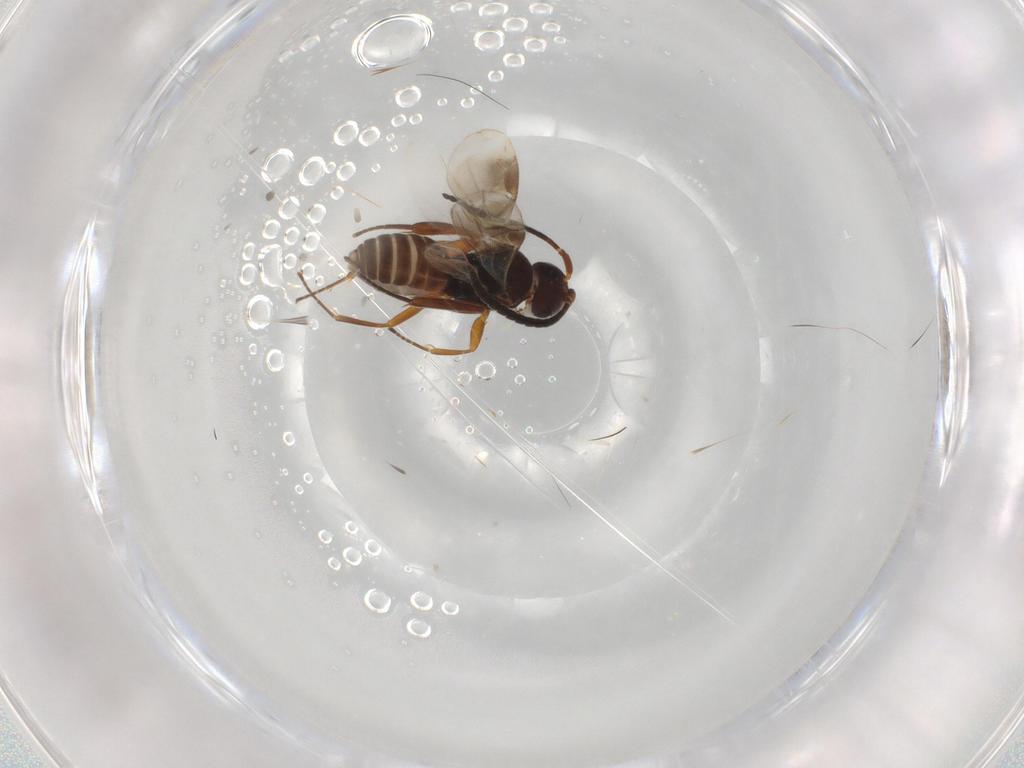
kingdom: Animalia
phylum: Arthropoda
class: Insecta
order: Hymenoptera
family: Braconidae
